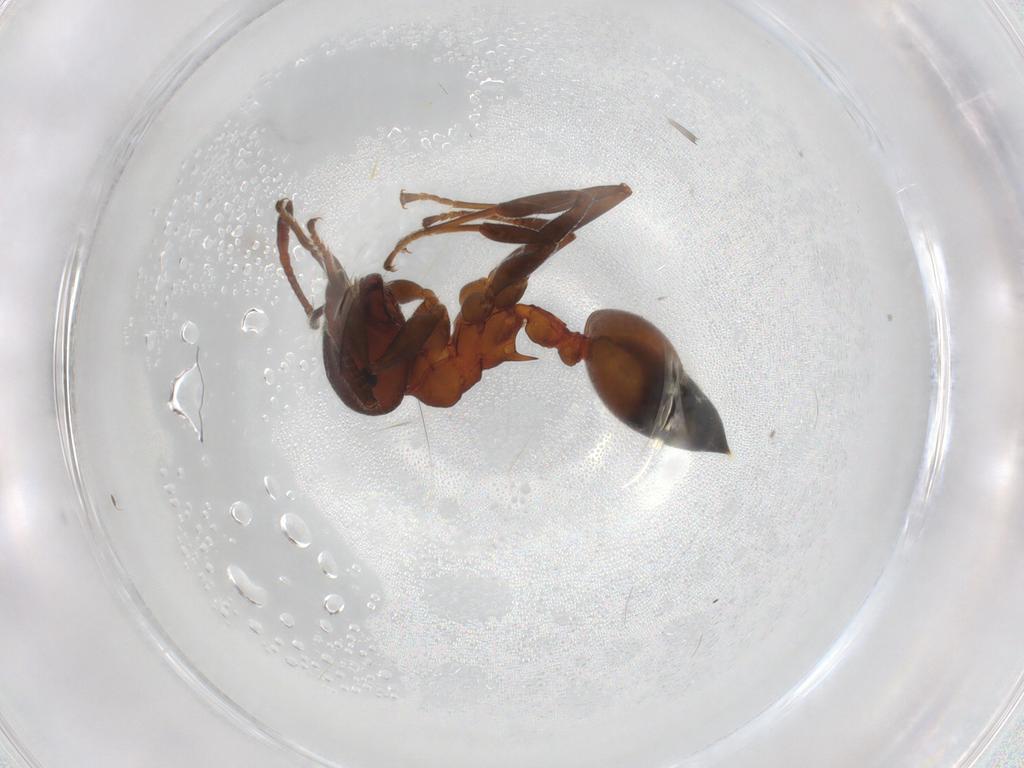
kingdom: Animalia
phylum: Arthropoda
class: Insecta
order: Hymenoptera
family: Formicidae
